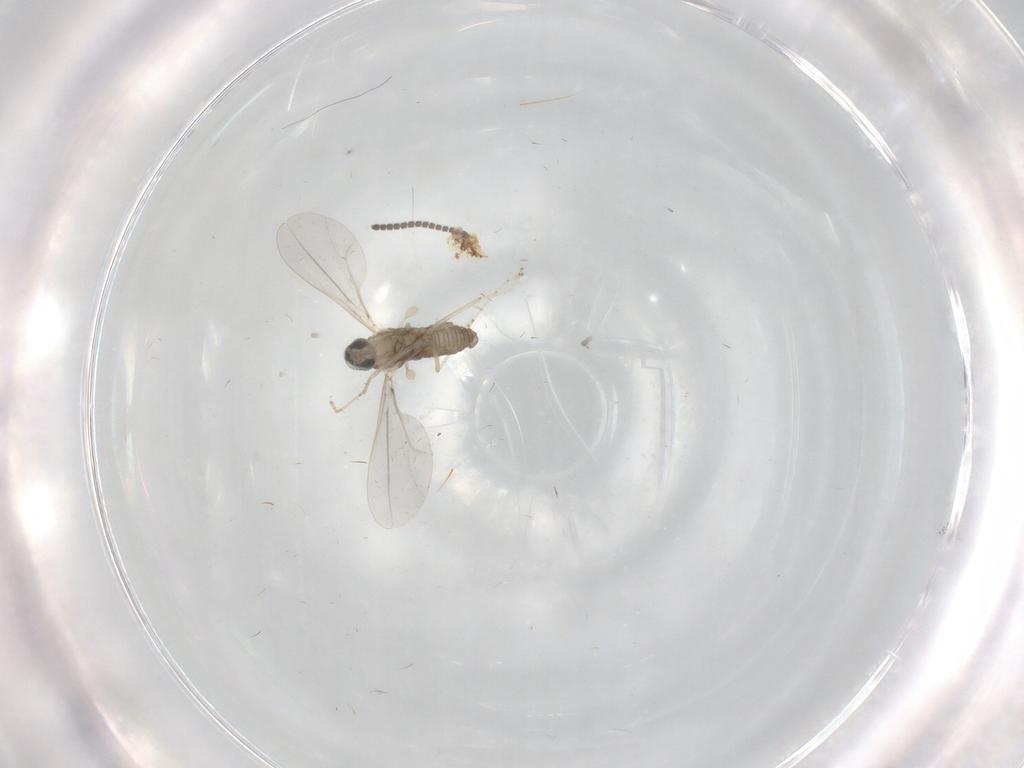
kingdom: Animalia
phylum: Arthropoda
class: Insecta
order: Diptera
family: Cecidomyiidae
